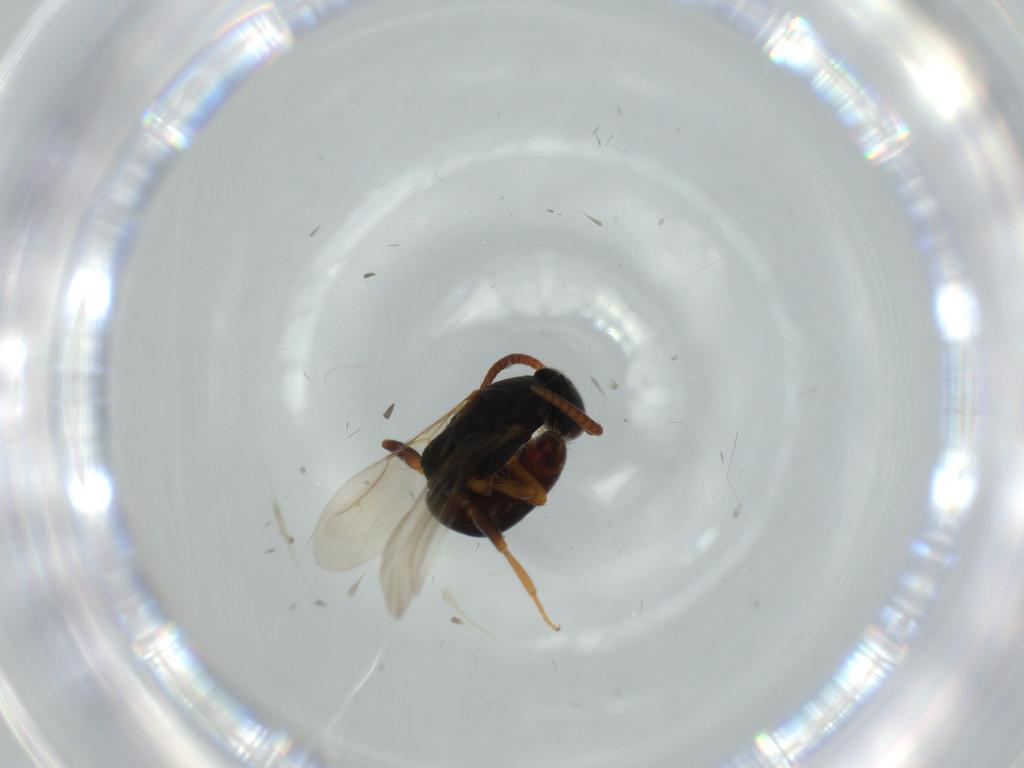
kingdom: Animalia
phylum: Arthropoda
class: Insecta
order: Hymenoptera
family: Bethylidae
